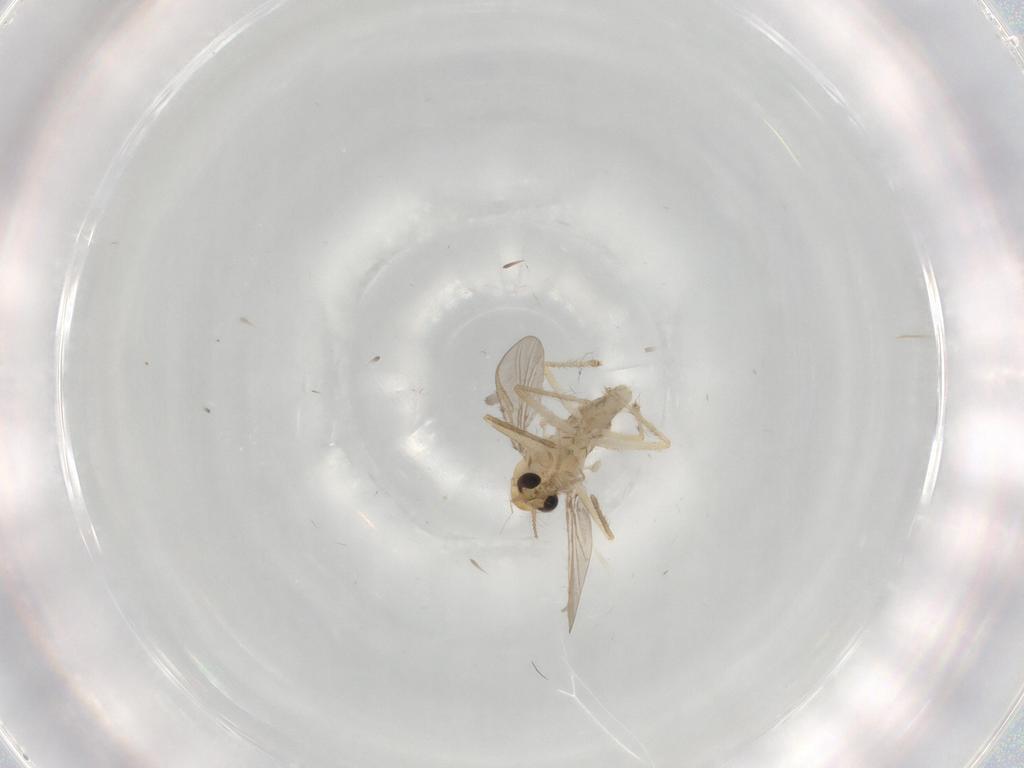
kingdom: Animalia
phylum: Arthropoda
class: Insecta
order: Diptera
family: Chironomidae
